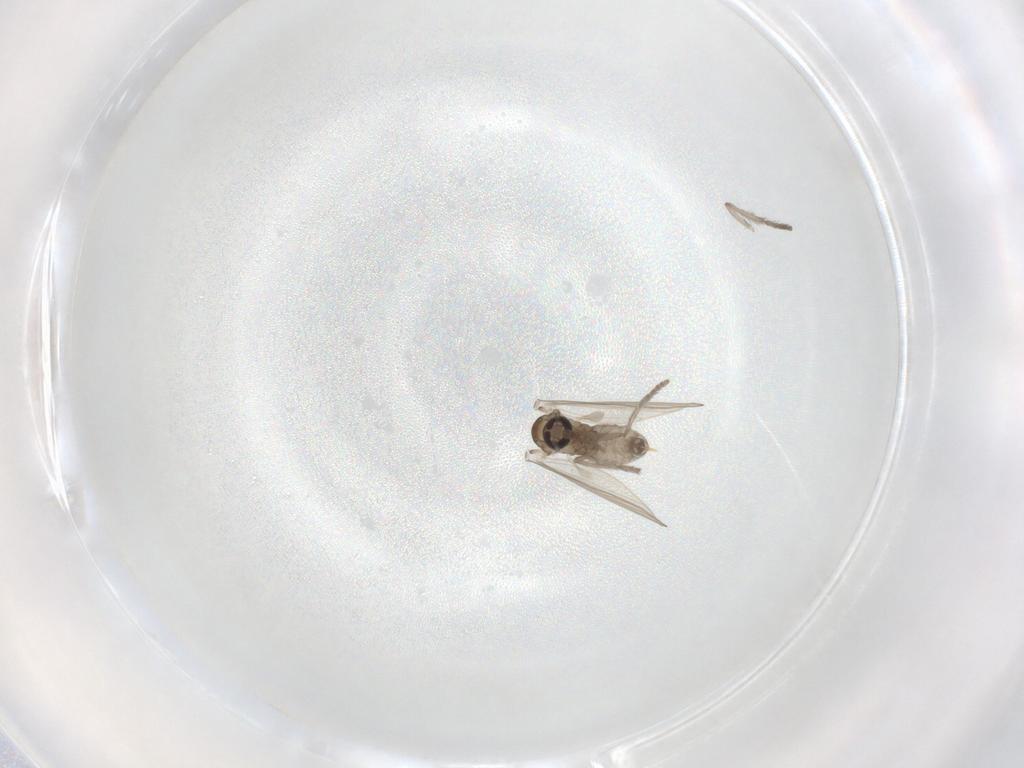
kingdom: Animalia
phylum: Arthropoda
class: Insecta
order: Diptera
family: Psychodidae
